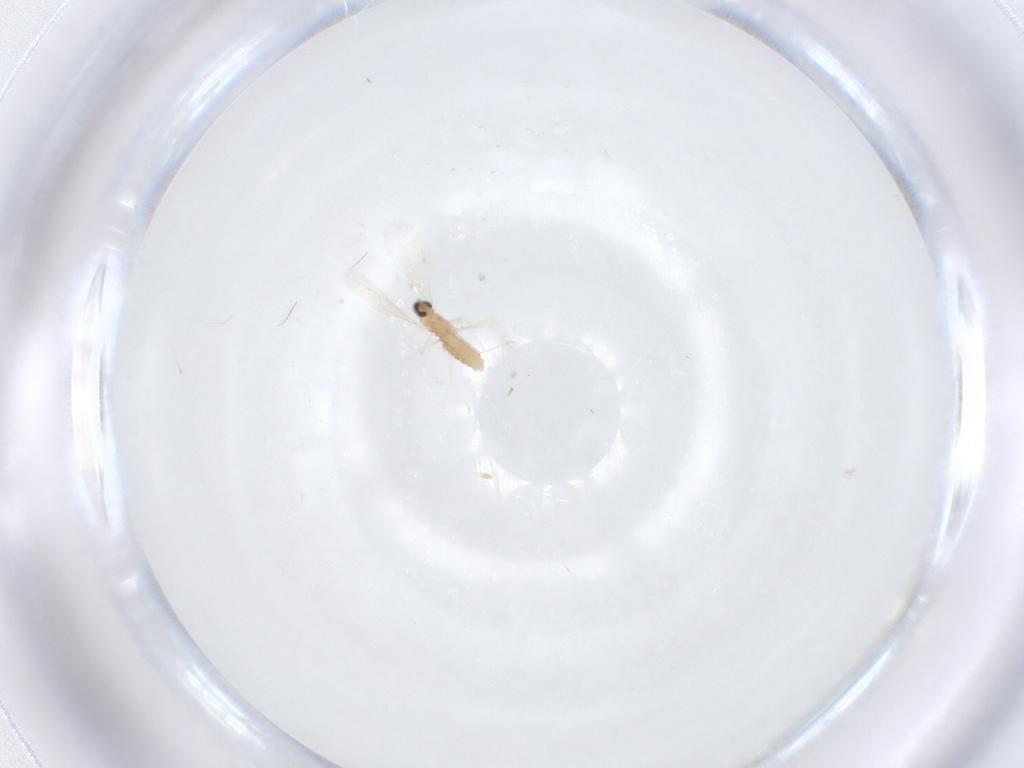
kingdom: Animalia
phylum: Arthropoda
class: Insecta
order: Diptera
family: Cecidomyiidae
